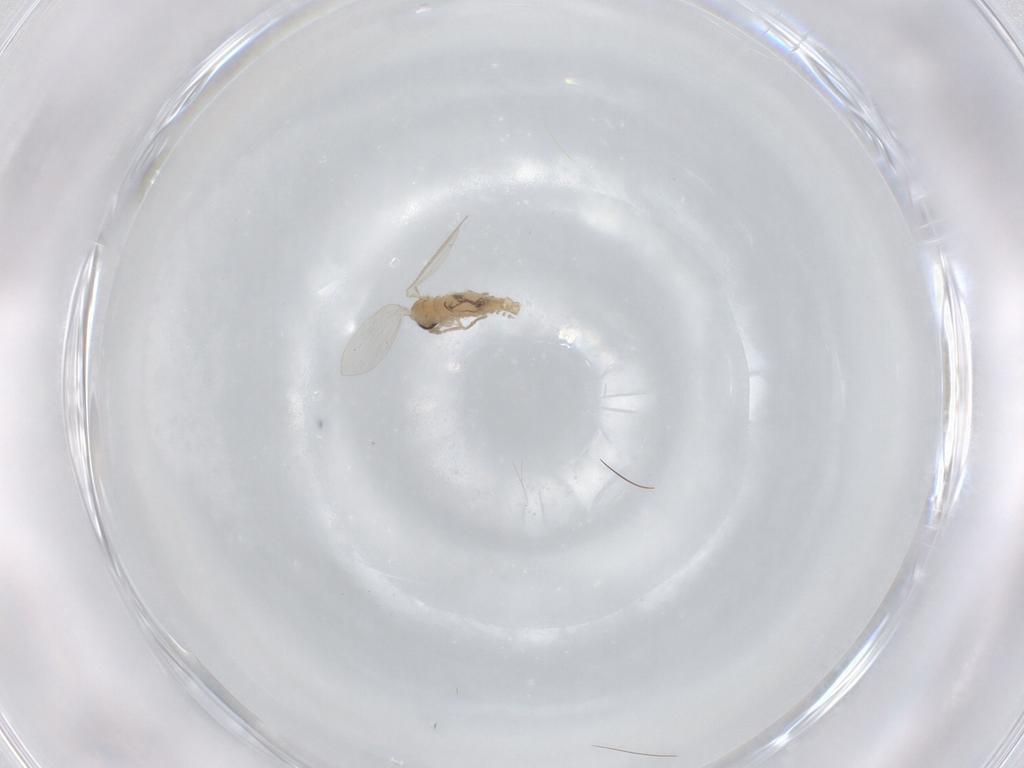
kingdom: Animalia
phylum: Arthropoda
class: Insecta
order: Diptera
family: Psychodidae
